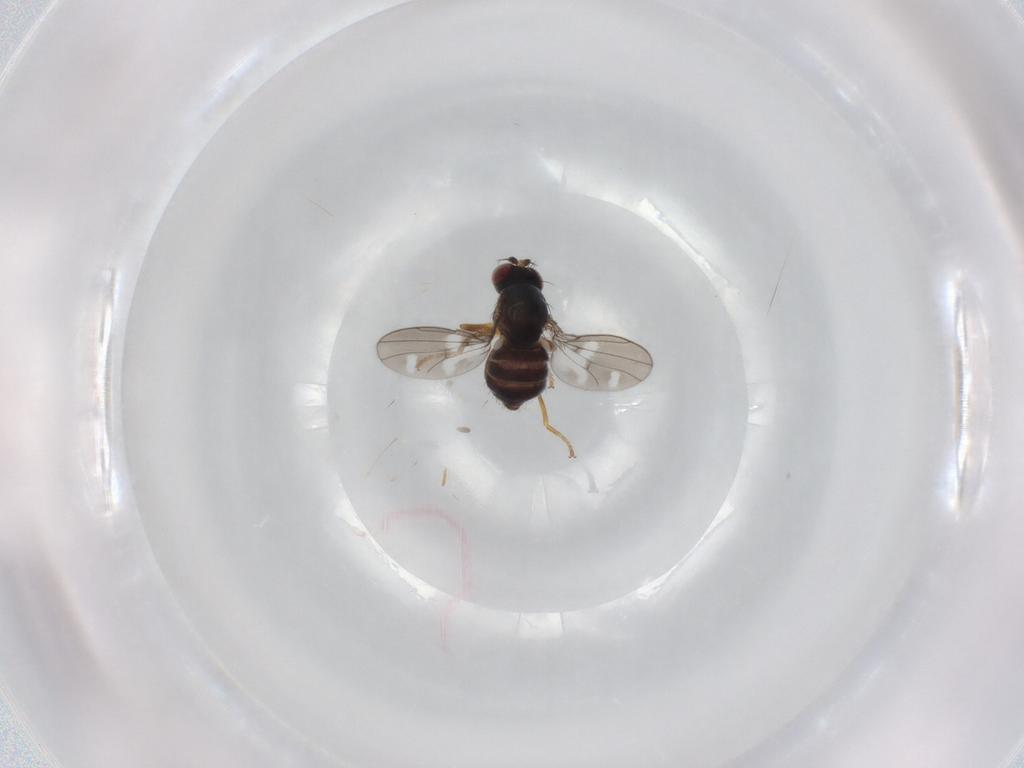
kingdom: Animalia
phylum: Arthropoda
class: Insecta
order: Diptera
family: Ephydridae
